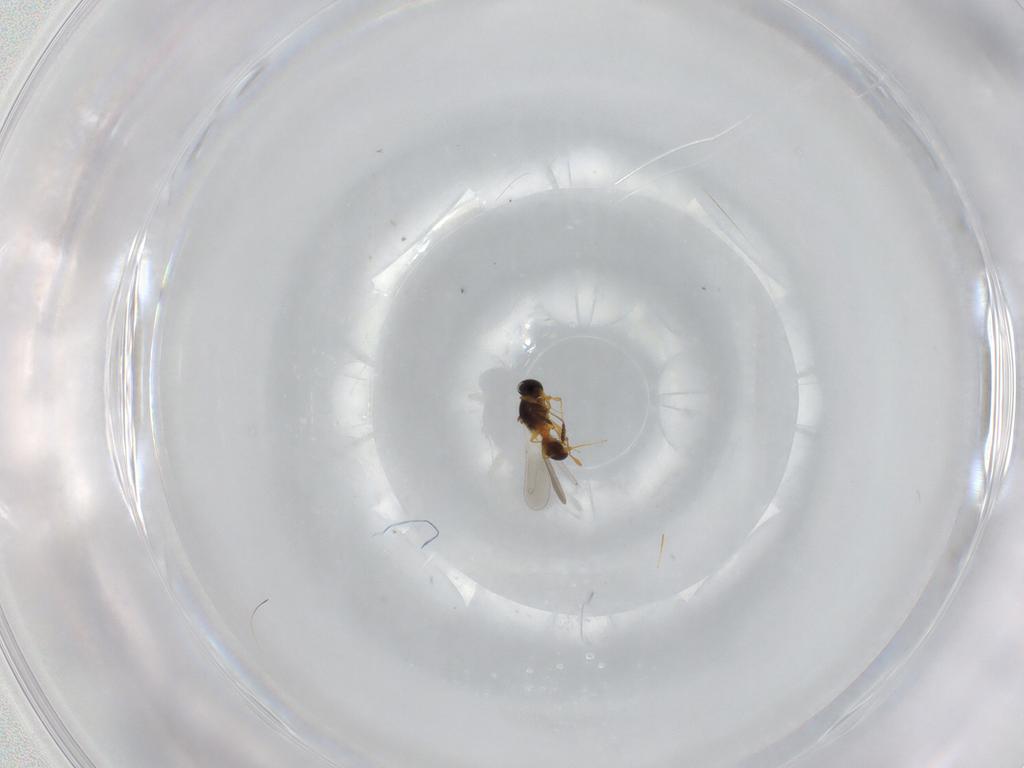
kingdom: Animalia
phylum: Arthropoda
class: Insecta
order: Hymenoptera
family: Platygastridae
